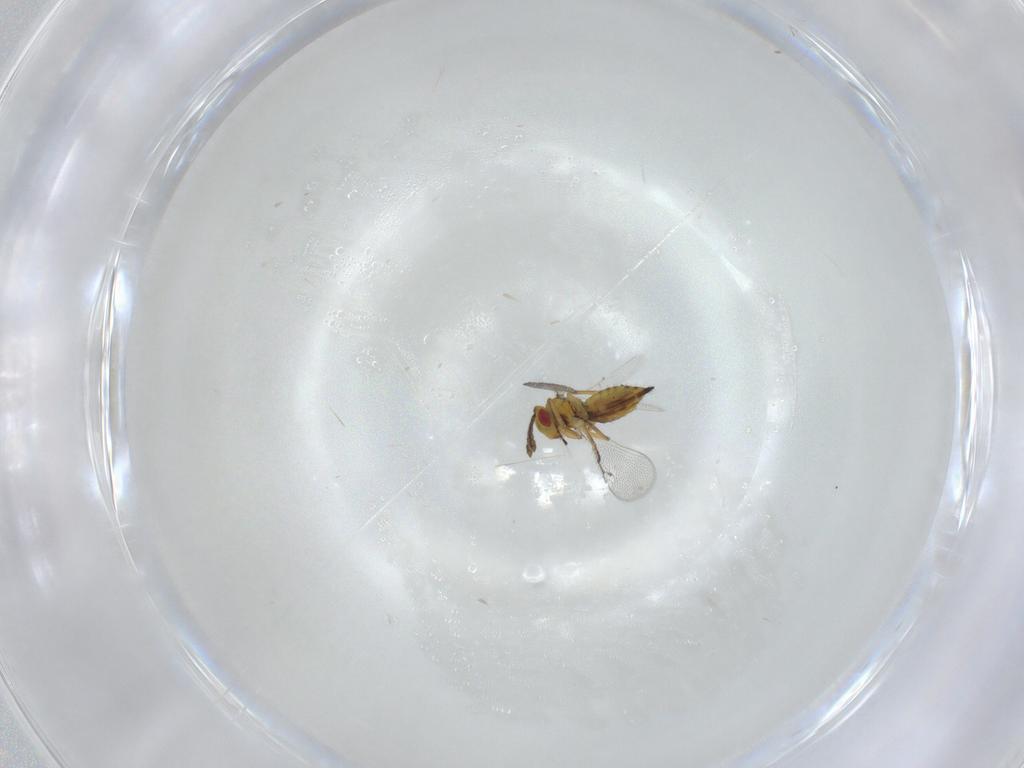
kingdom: Animalia
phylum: Arthropoda
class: Insecta
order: Hymenoptera
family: Eulophidae
